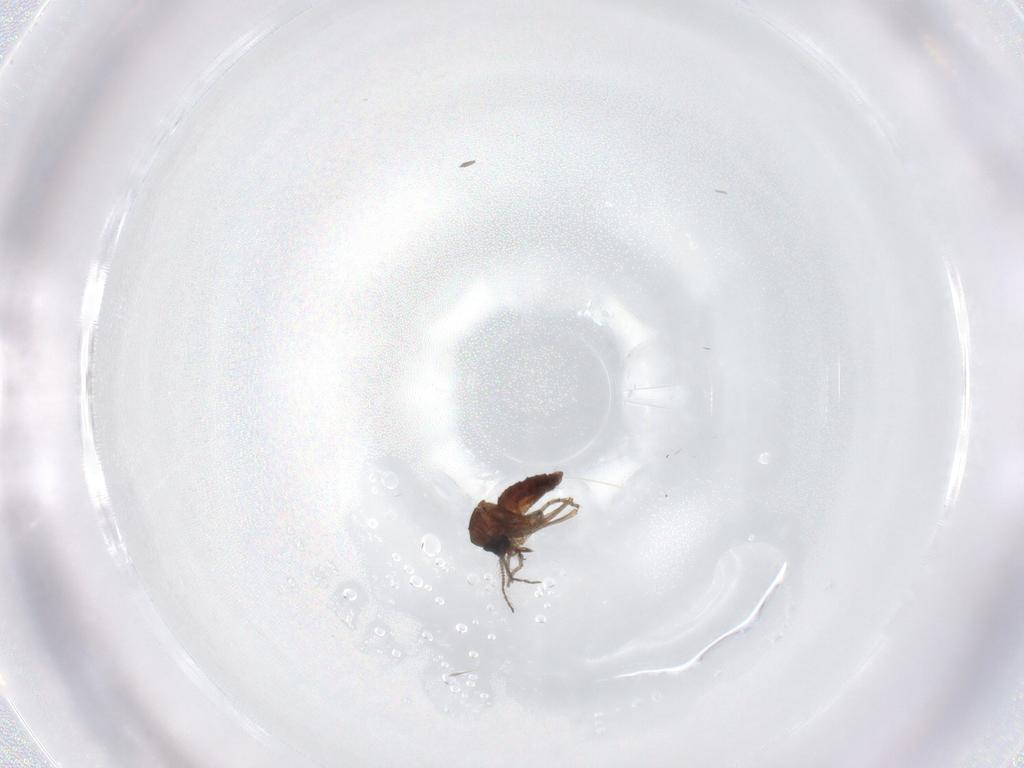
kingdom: Animalia
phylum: Arthropoda
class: Insecta
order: Diptera
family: Ceratopogonidae
